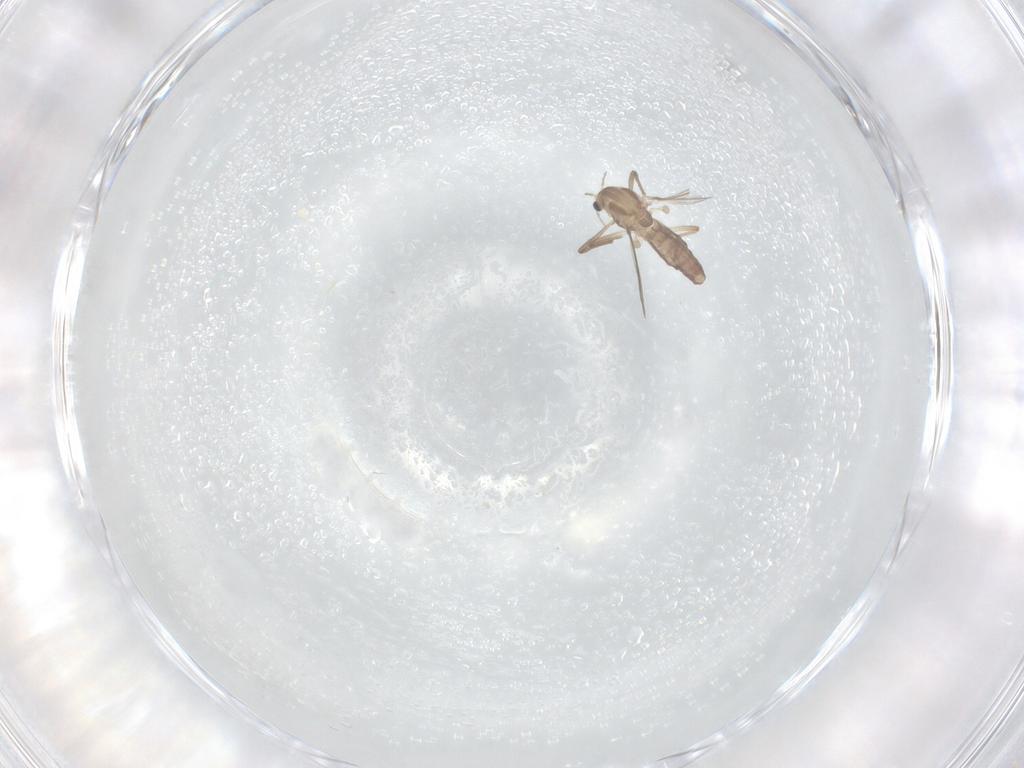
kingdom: Animalia
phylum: Arthropoda
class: Insecta
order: Diptera
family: Chironomidae
